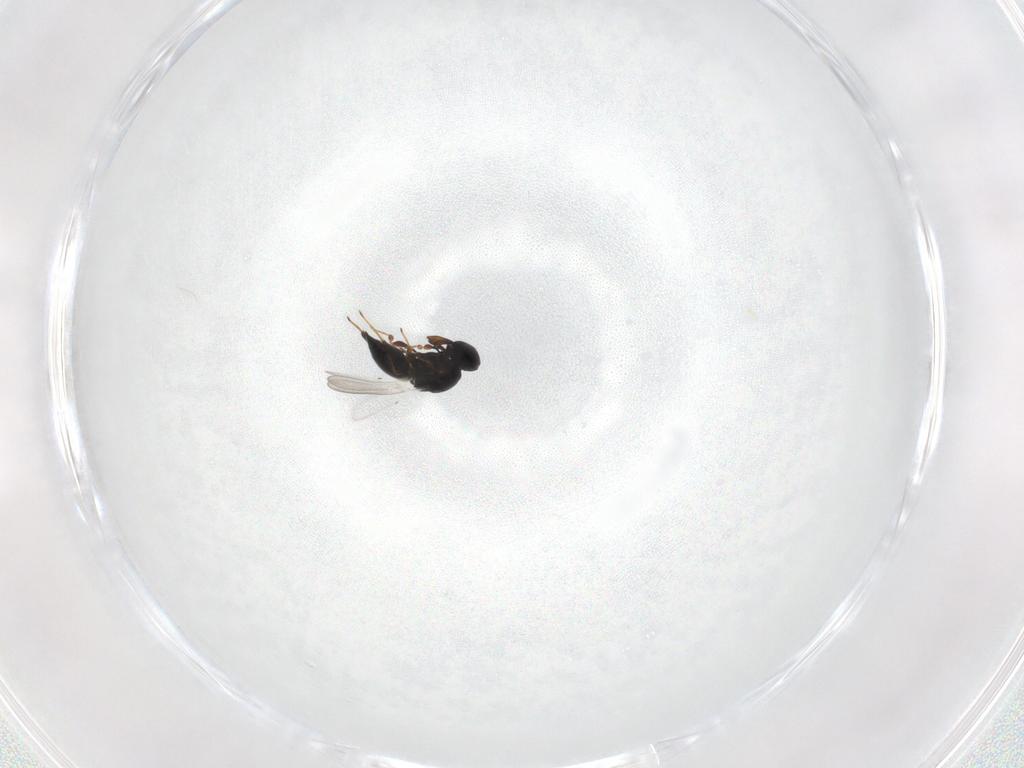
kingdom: Animalia
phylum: Arthropoda
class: Insecta
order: Hymenoptera
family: Platygastridae
